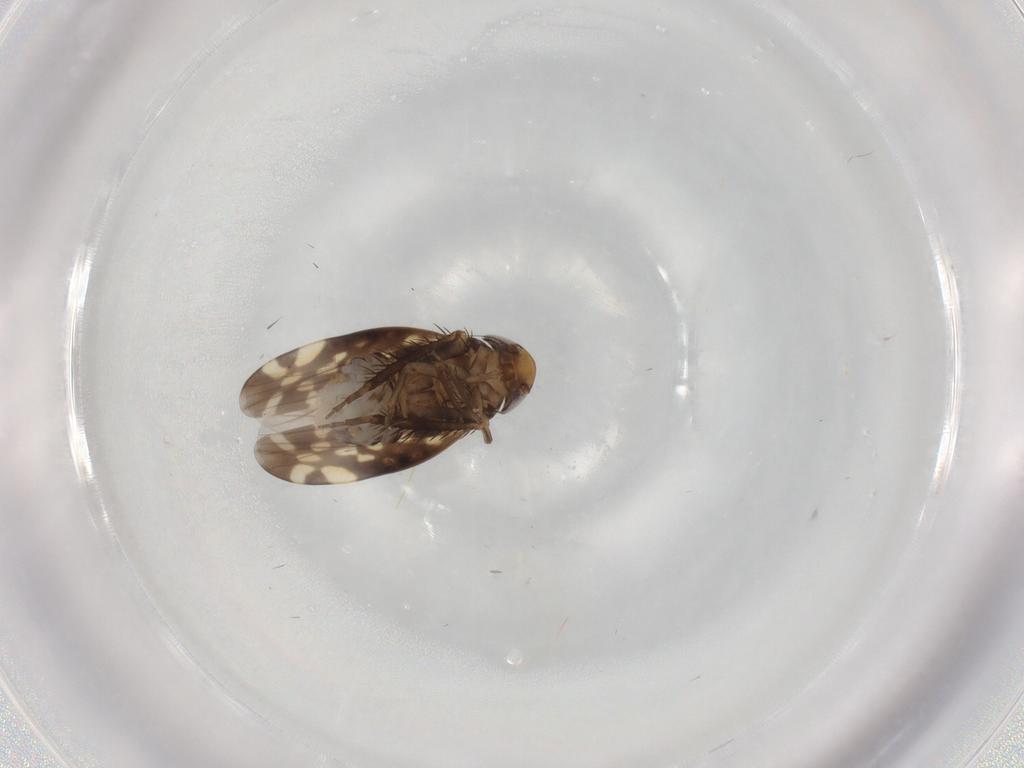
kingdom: Animalia
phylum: Arthropoda
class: Insecta
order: Hemiptera
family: Cicadellidae
